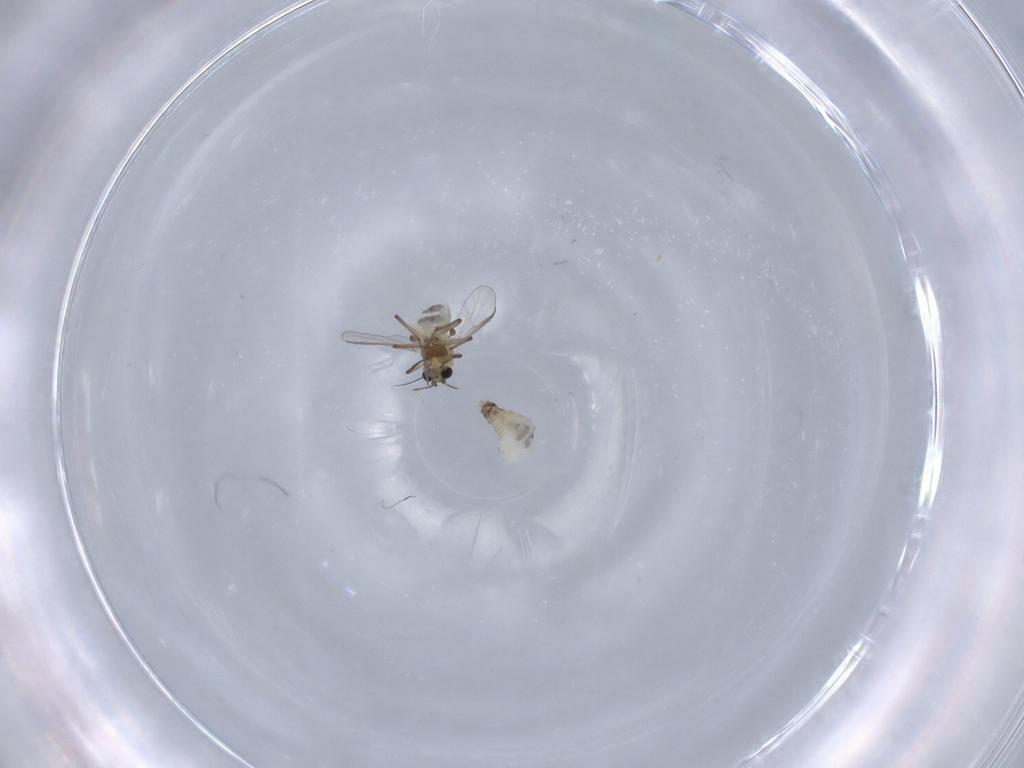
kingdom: Animalia
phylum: Arthropoda
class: Insecta
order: Diptera
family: Chironomidae
